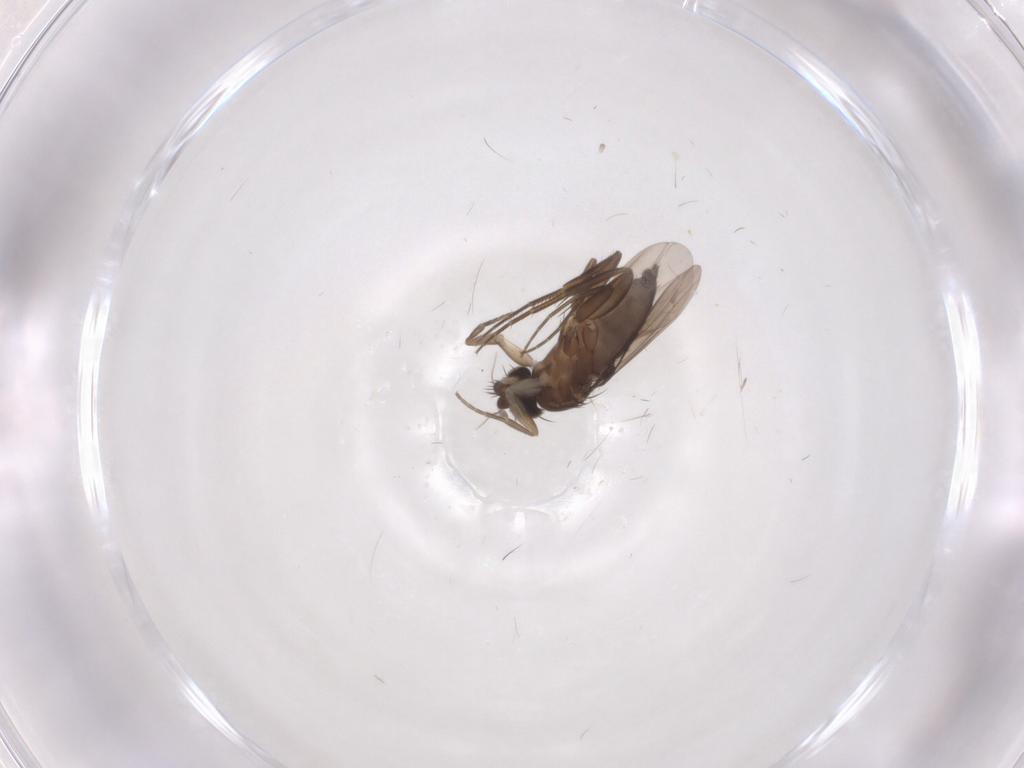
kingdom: Animalia
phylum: Arthropoda
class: Insecta
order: Diptera
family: Phoridae
